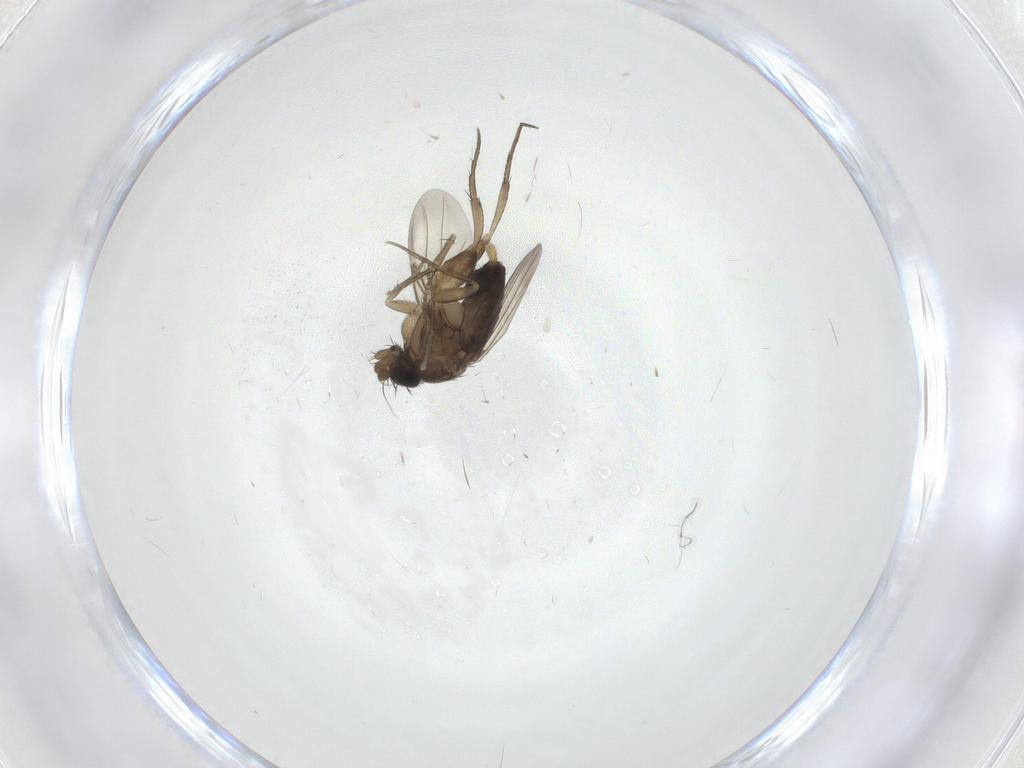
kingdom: Animalia
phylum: Arthropoda
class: Insecta
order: Diptera
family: Phoridae
